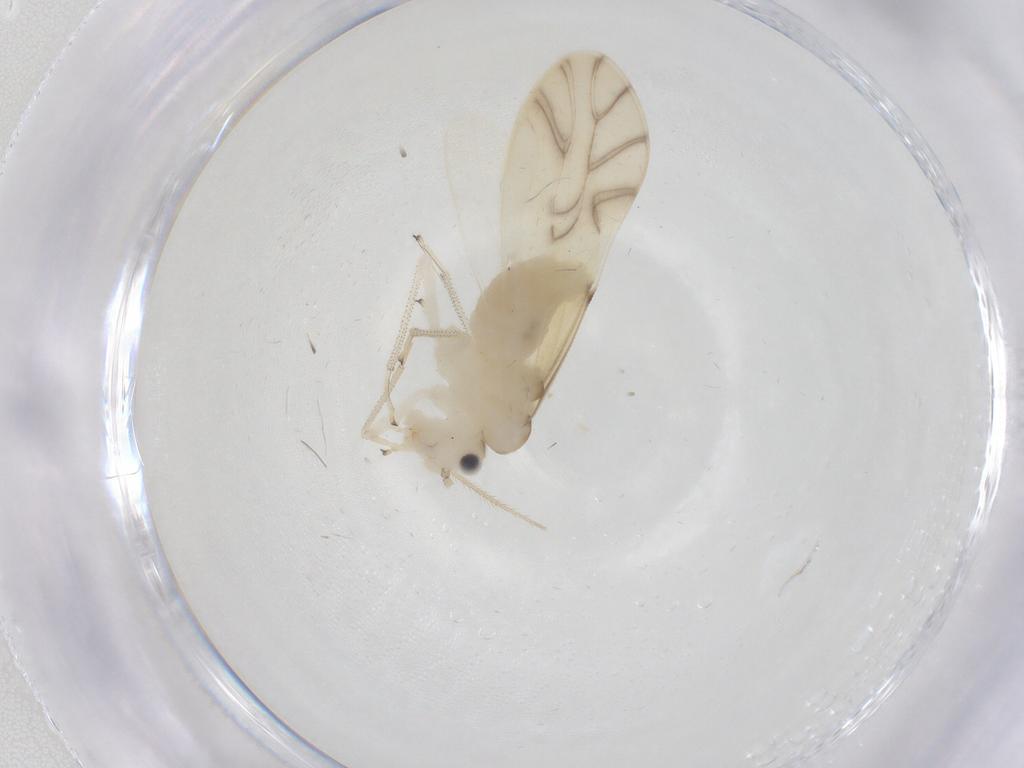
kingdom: Animalia
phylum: Arthropoda
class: Insecta
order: Psocodea
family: Caeciliusidae
